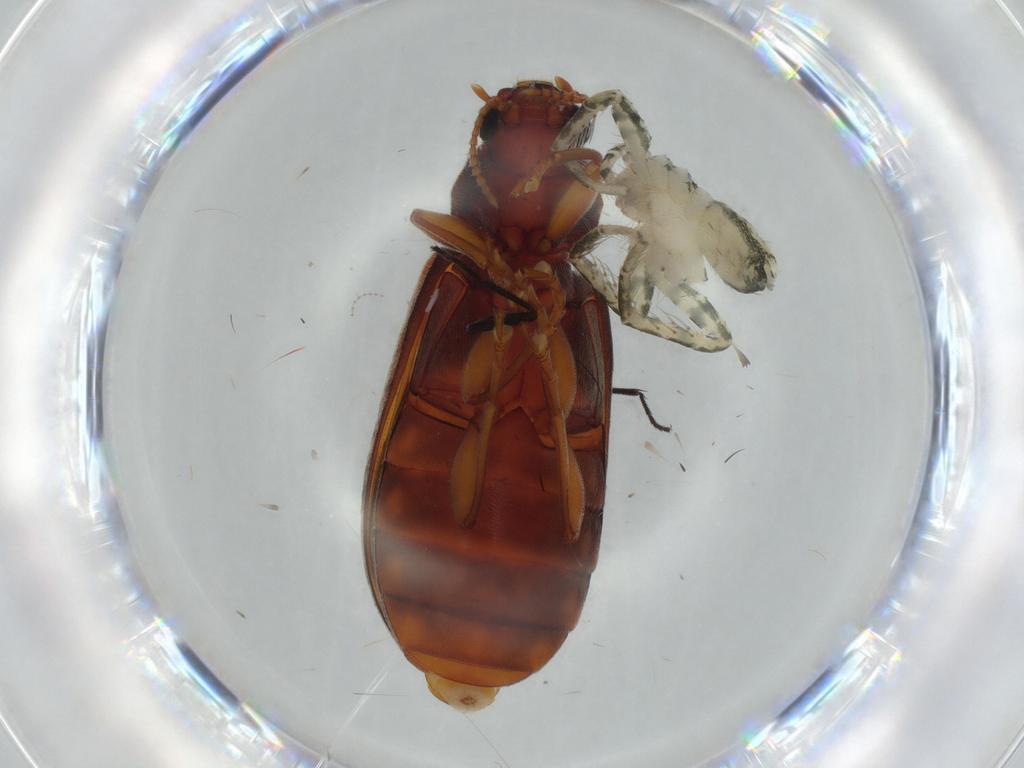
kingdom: Animalia
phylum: Arthropoda
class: Insecta
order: Coleoptera
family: Mycteridae
